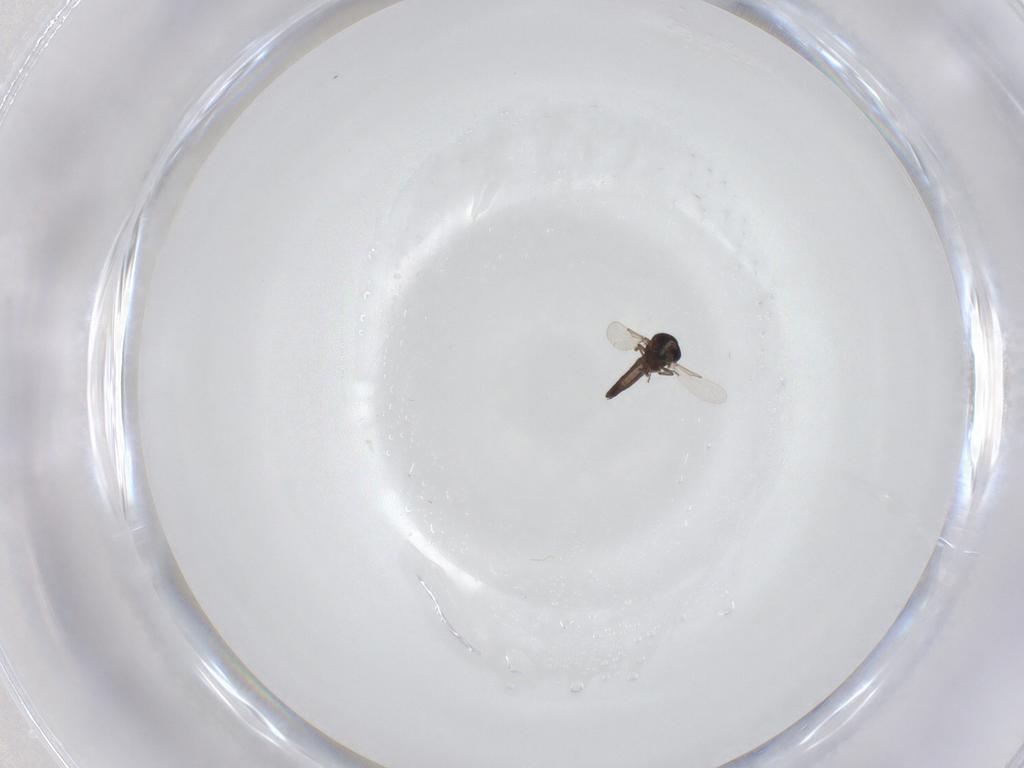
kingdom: Animalia
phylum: Arthropoda
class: Insecta
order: Diptera
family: Ceratopogonidae
